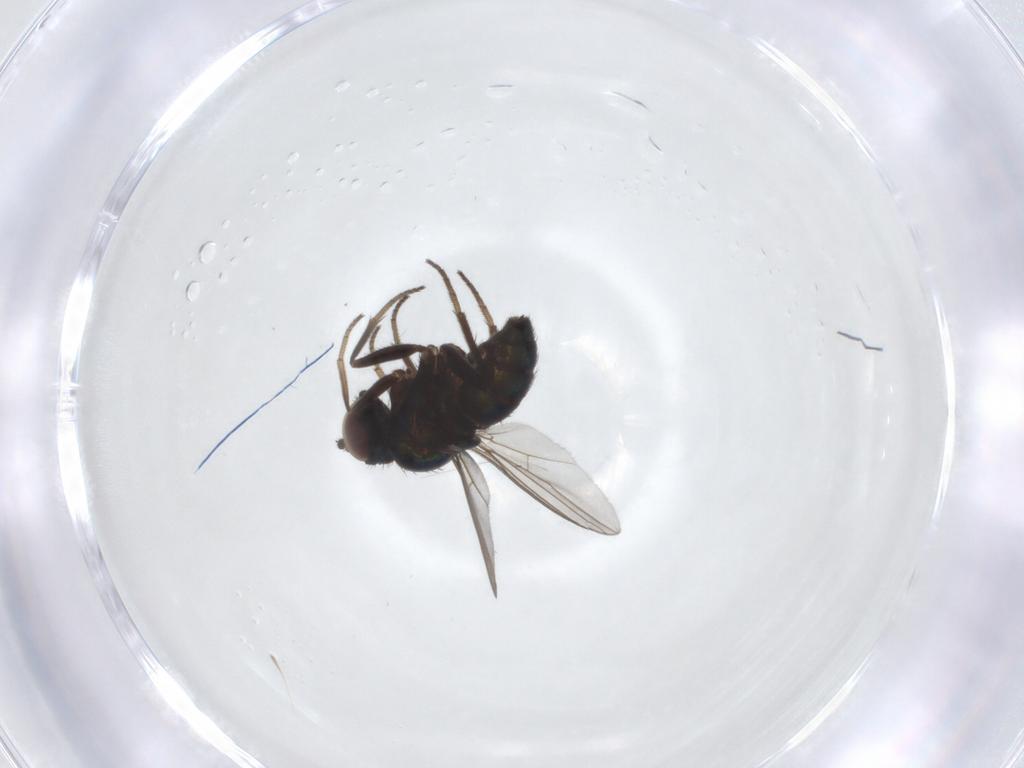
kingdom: Animalia
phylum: Arthropoda
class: Insecta
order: Diptera
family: Dolichopodidae
